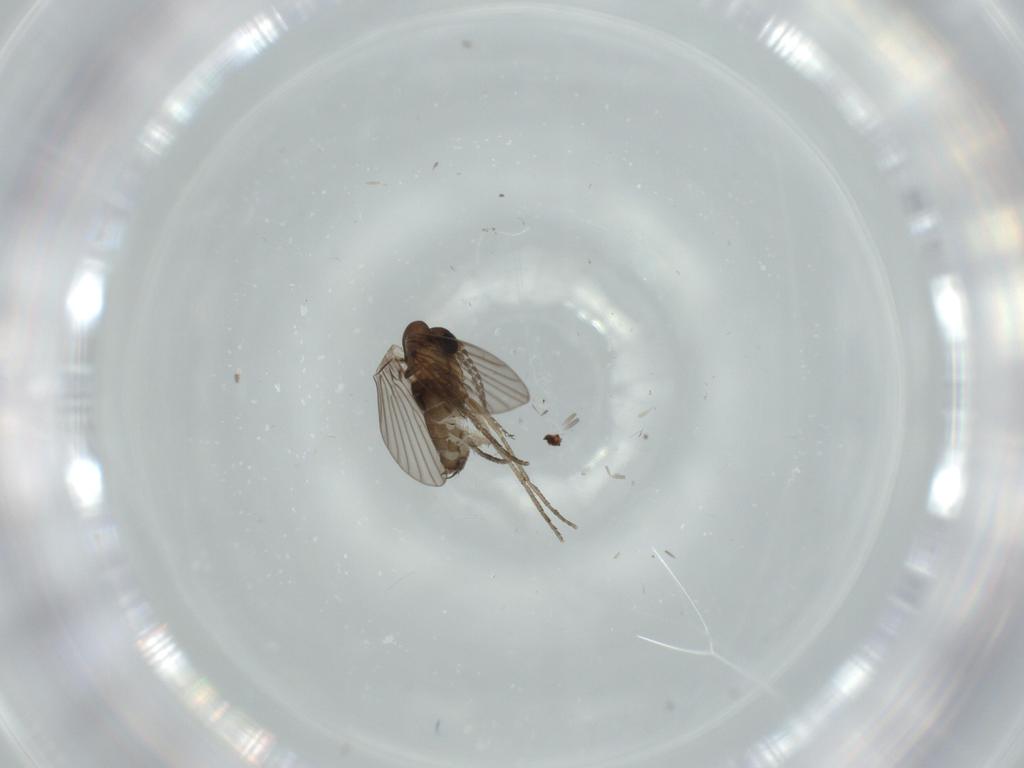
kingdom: Animalia
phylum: Arthropoda
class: Insecta
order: Diptera
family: Psychodidae
